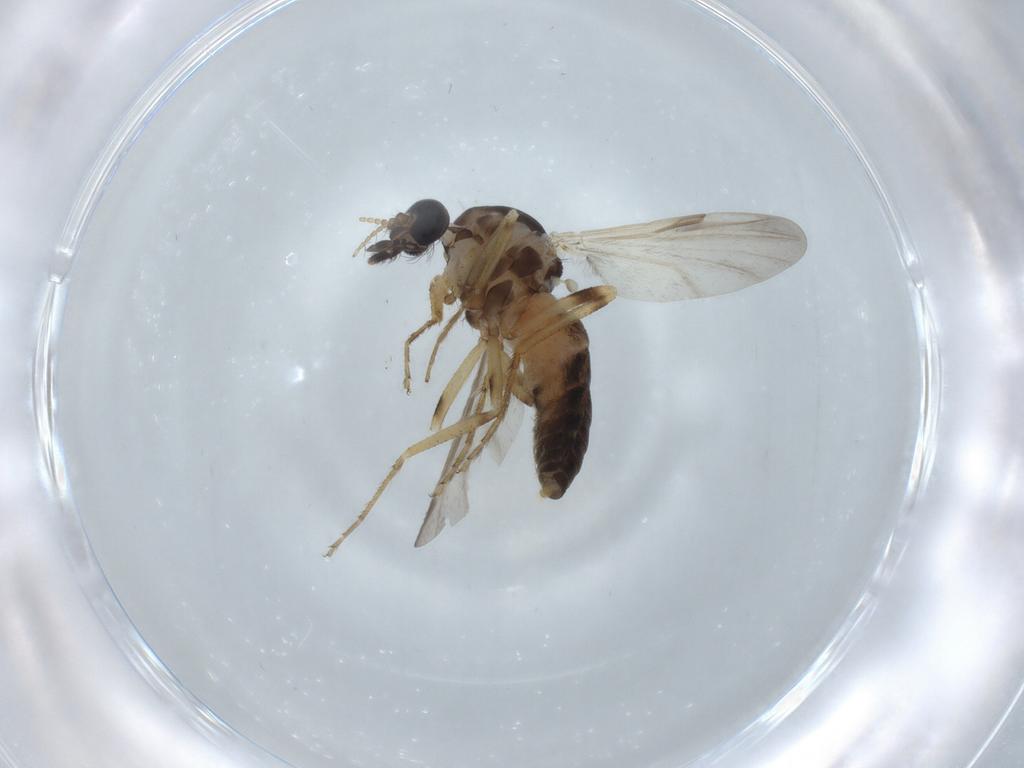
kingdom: Animalia
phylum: Arthropoda
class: Insecta
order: Diptera
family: Ceratopogonidae
